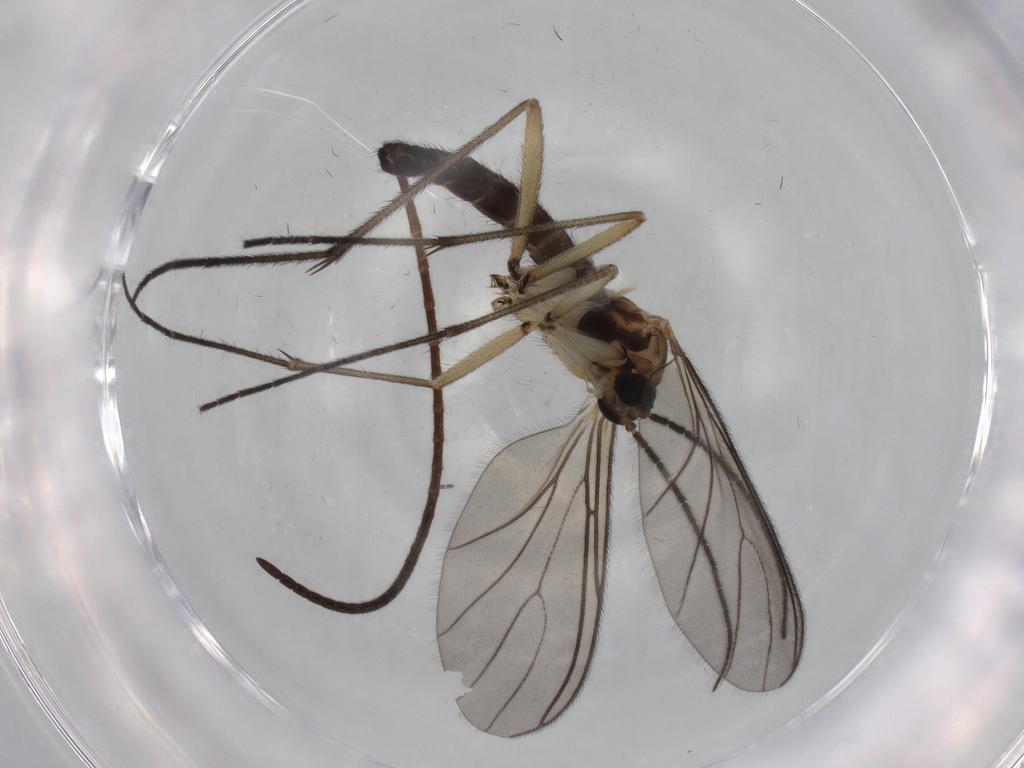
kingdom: Animalia
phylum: Arthropoda
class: Insecta
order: Diptera
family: Sciaridae
